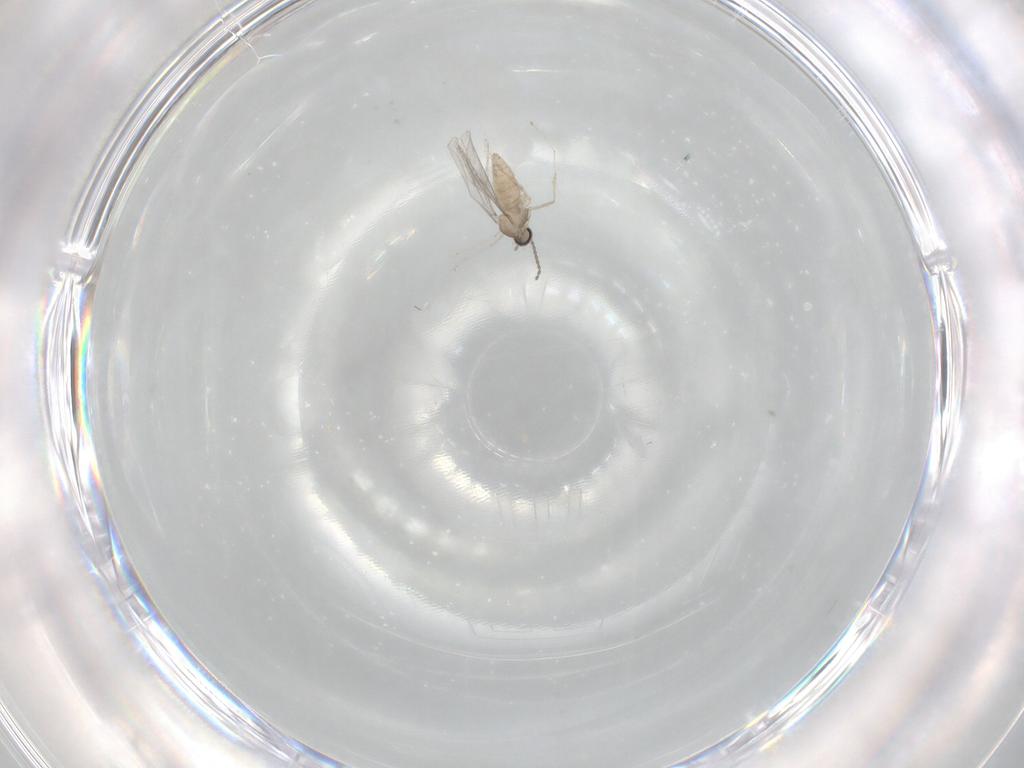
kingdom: Animalia
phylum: Arthropoda
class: Insecta
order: Diptera
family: Cecidomyiidae
